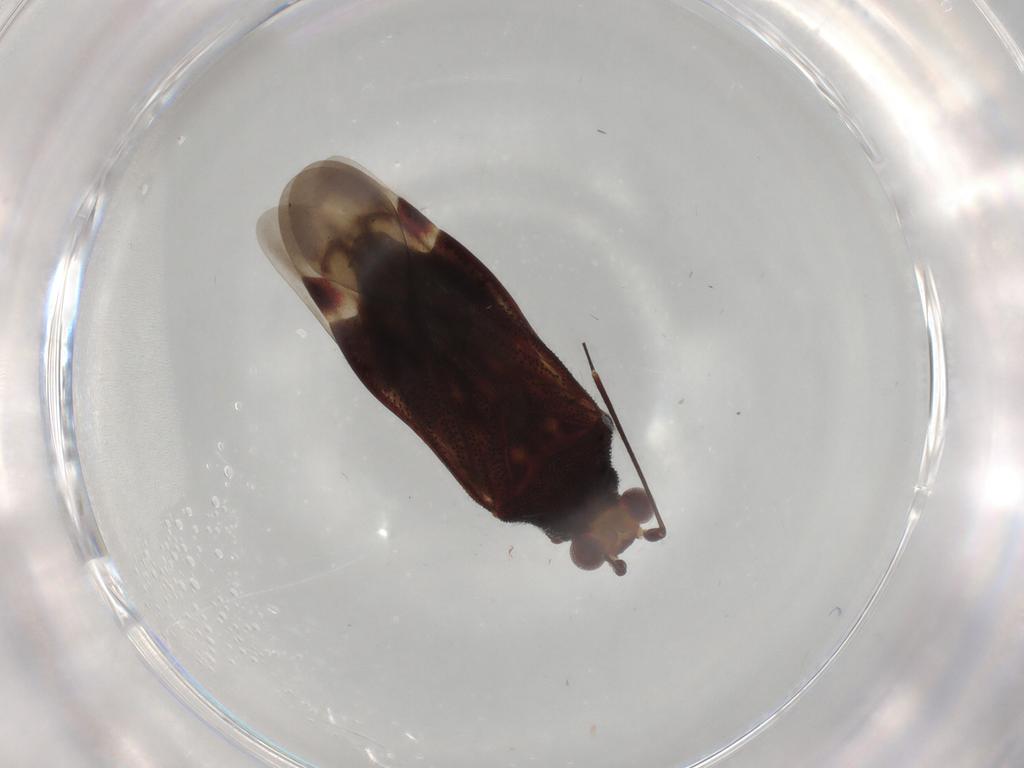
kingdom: Animalia
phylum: Arthropoda
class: Insecta
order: Hemiptera
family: Miridae
